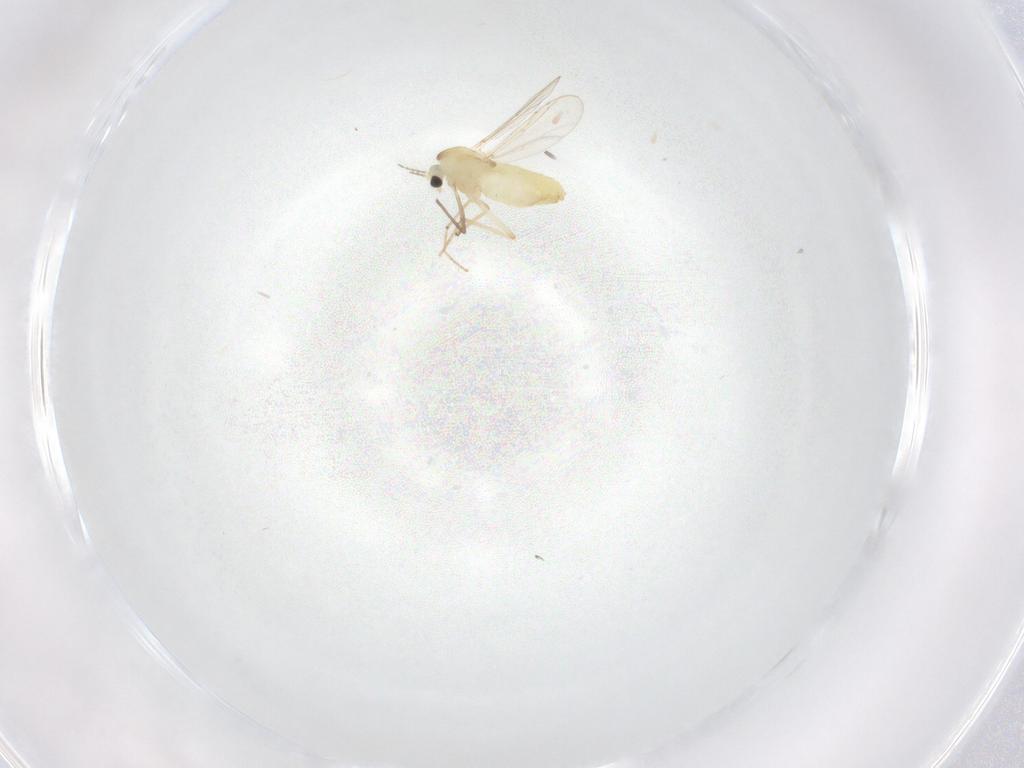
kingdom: Animalia
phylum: Arthropoda
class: Insecta
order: Diptera
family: Chironomidae
